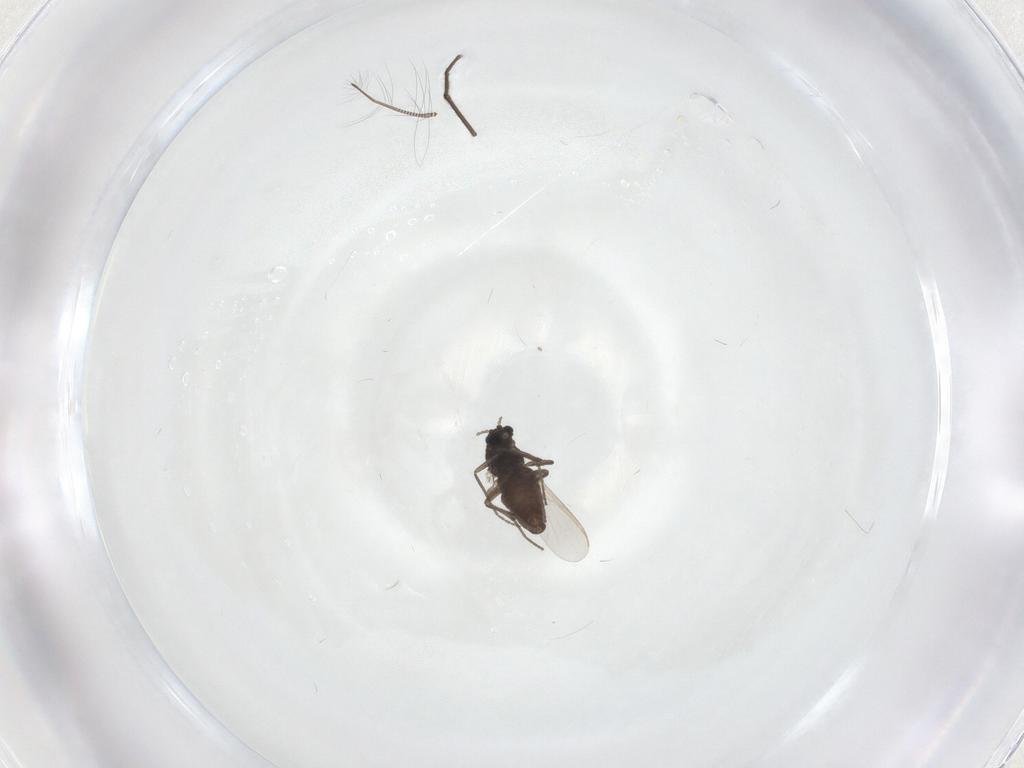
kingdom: Animalia
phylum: Arthropoda
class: Insecta
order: Diptera
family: Chironomidae
